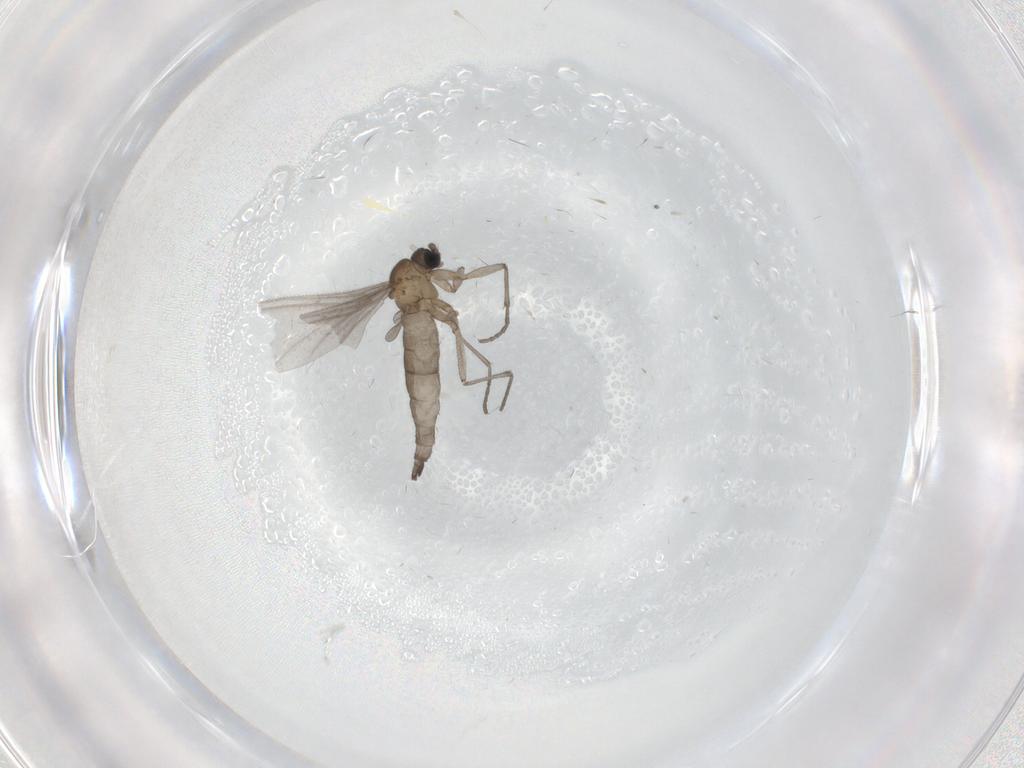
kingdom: Animalia
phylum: Arthropoda
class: Insecta
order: Diptera
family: Sciaridae
